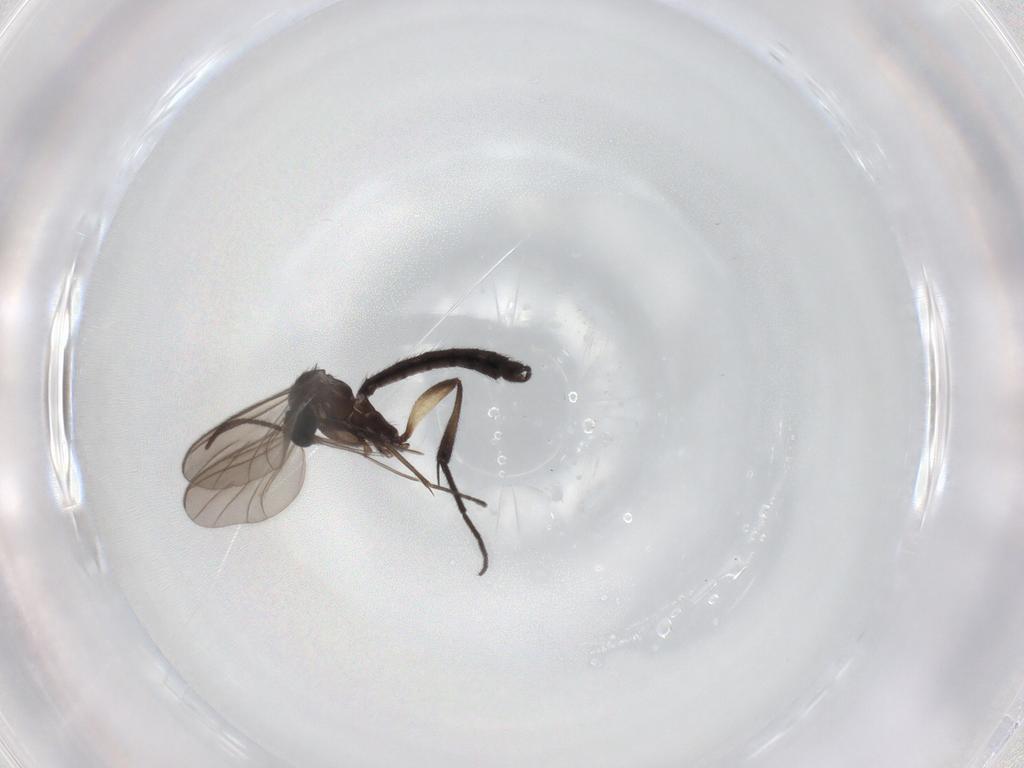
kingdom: Animalia
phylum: Arthropoda
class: Insecta
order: Diptera
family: Keroplatidae
